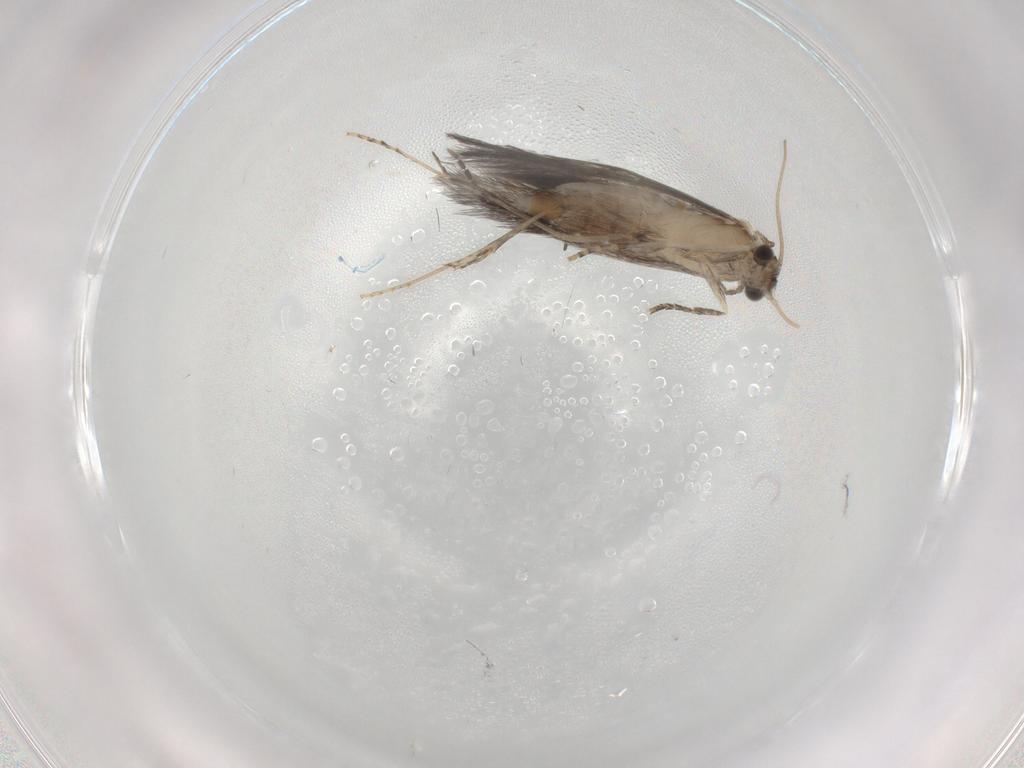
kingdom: Animalia
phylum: Arthropoda
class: Insecta
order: Trichoptera
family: Hydroptilidae
